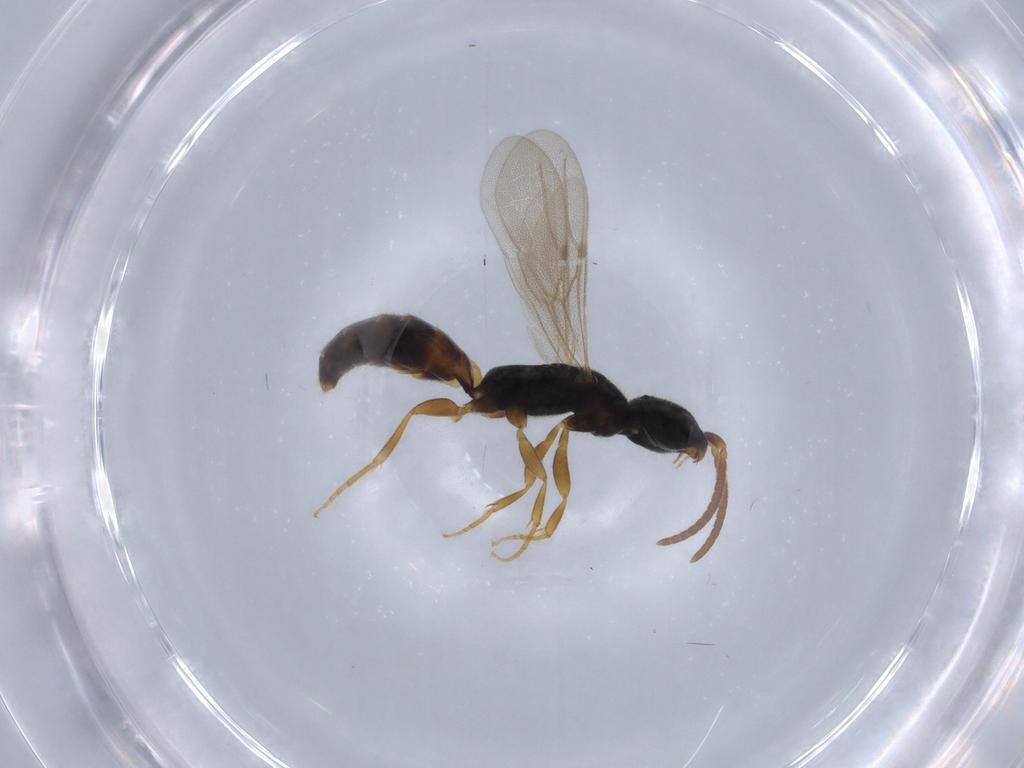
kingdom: Animalia
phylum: Arthropoda
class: Insecta
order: Hymenoptera
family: Bethylidae
